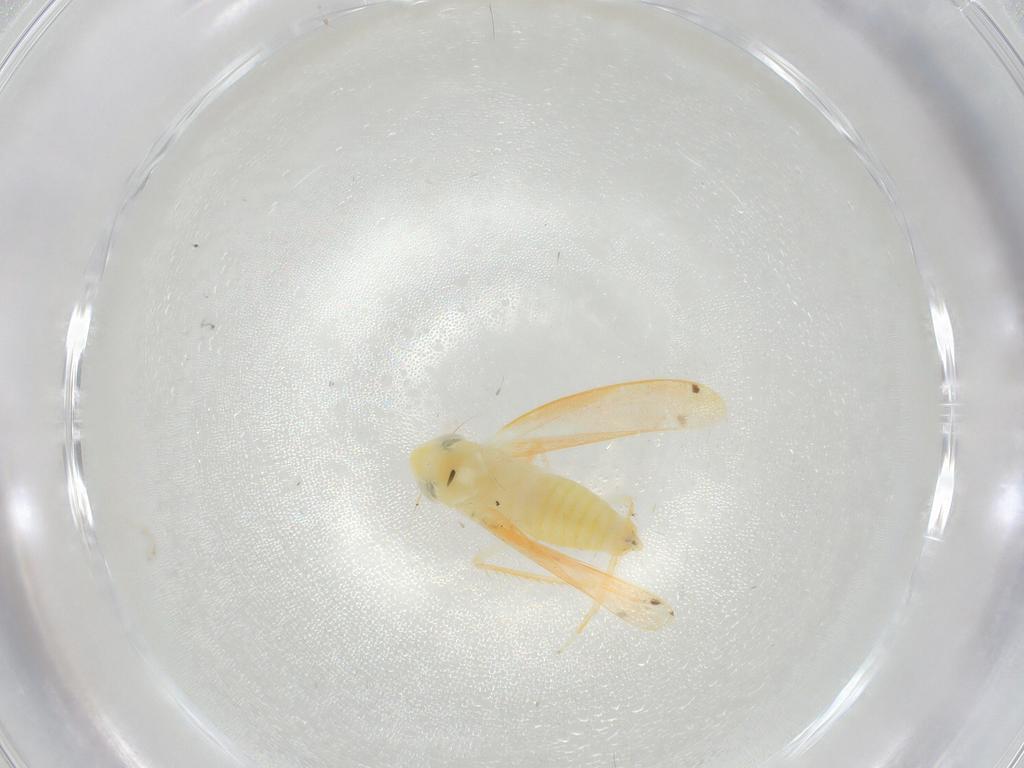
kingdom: Animalia
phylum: Arthropoda
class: Insecta
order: Hemiptera
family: Cicadellidae
